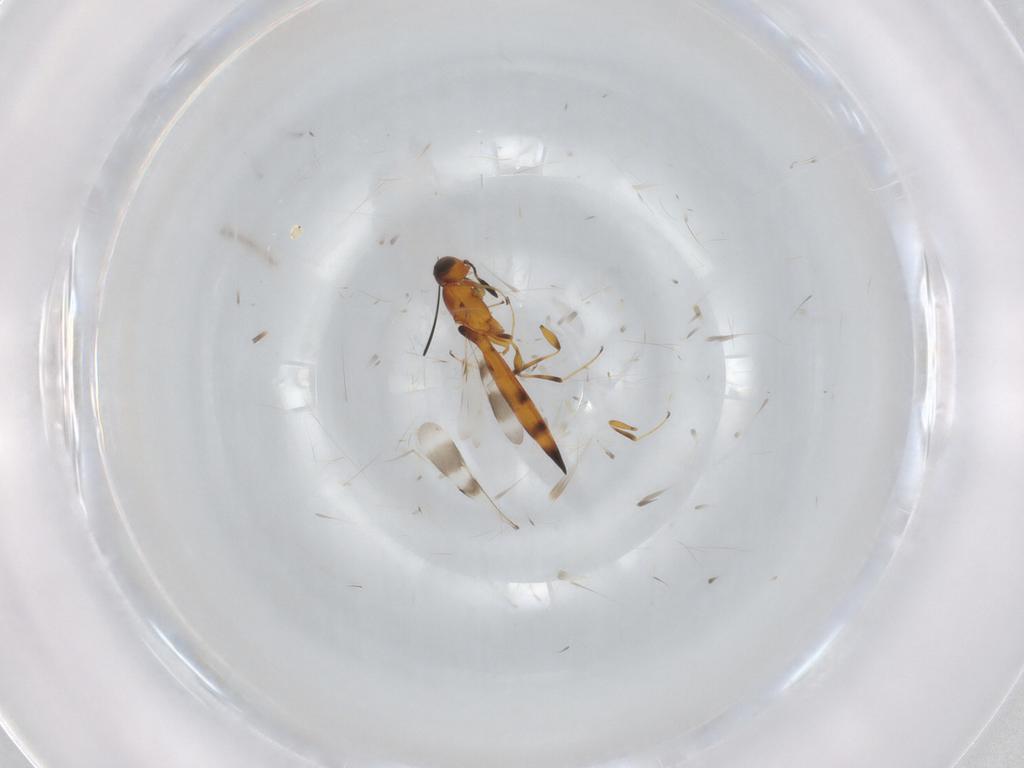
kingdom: Animalia
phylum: Arthropoda
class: Insecta
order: Hymenoptera
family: Scelionidae
